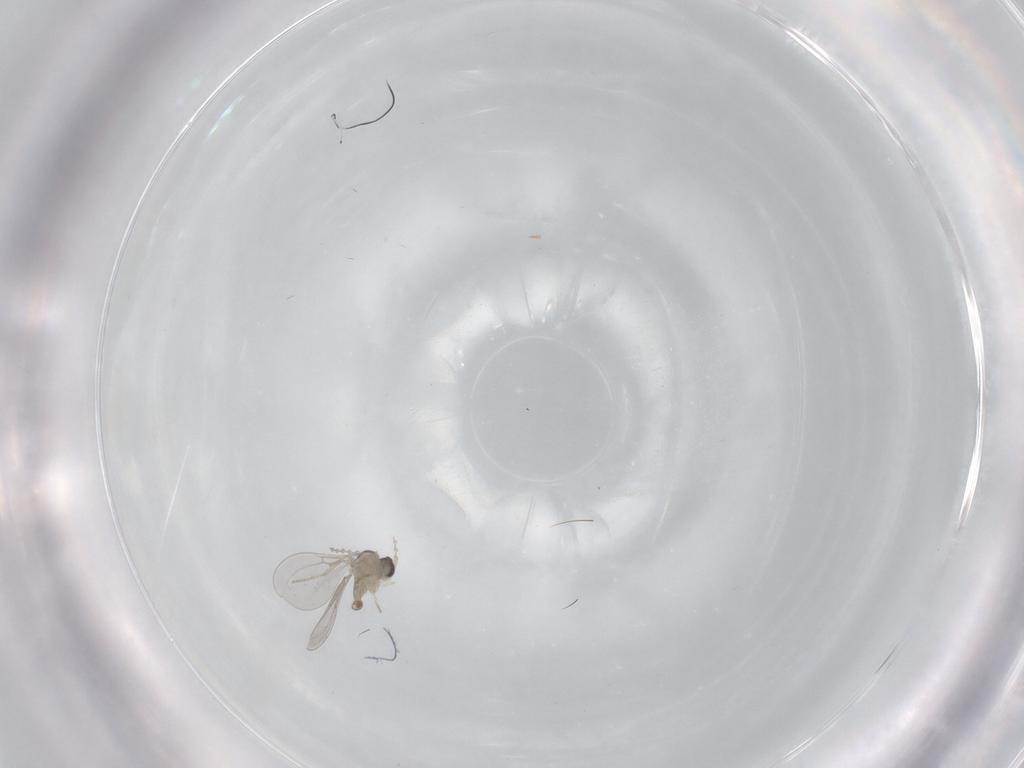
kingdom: Animalia
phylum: Arthropoda
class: Insecta
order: Diptera
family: Cecidomyiidae
